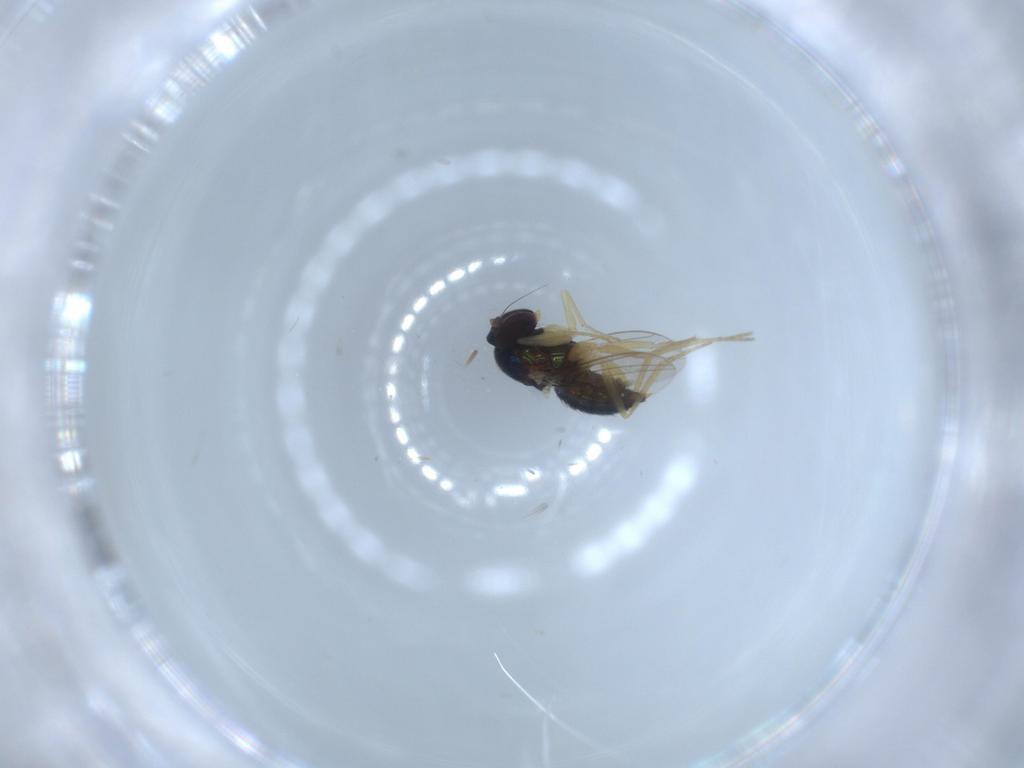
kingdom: Animalia
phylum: Arthropoda
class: Insecta
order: Diptera
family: Dolichopodidae
